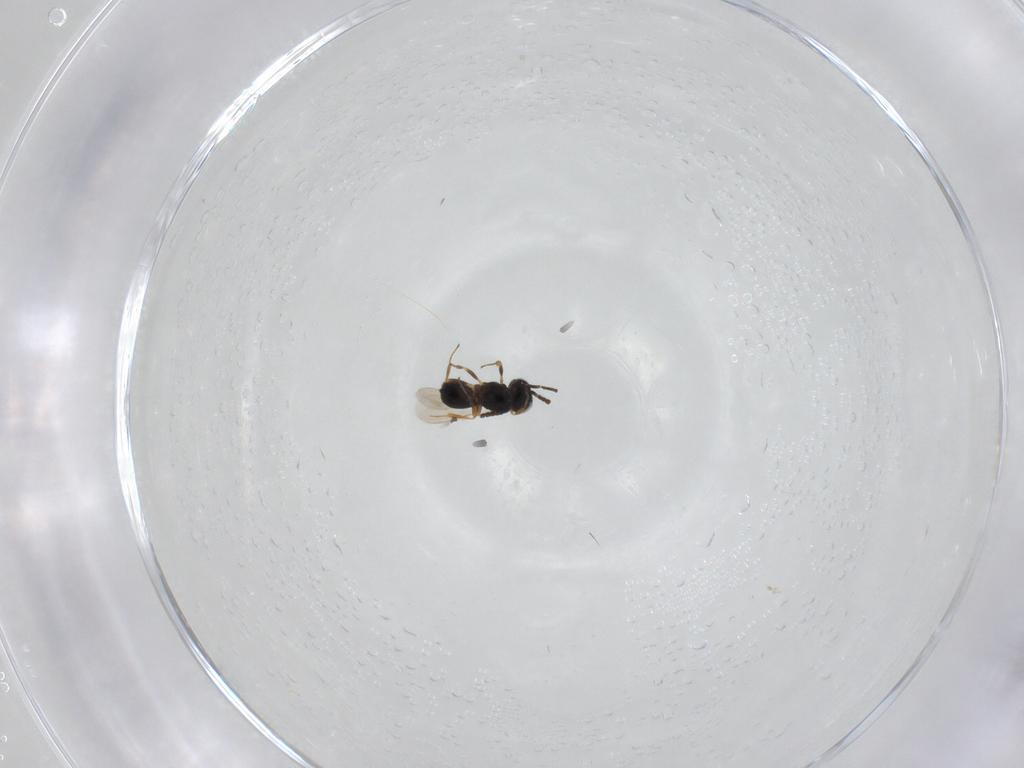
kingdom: Animalia
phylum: Arthropoda
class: Insecta
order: Hymenoptera
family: Scelionidae
